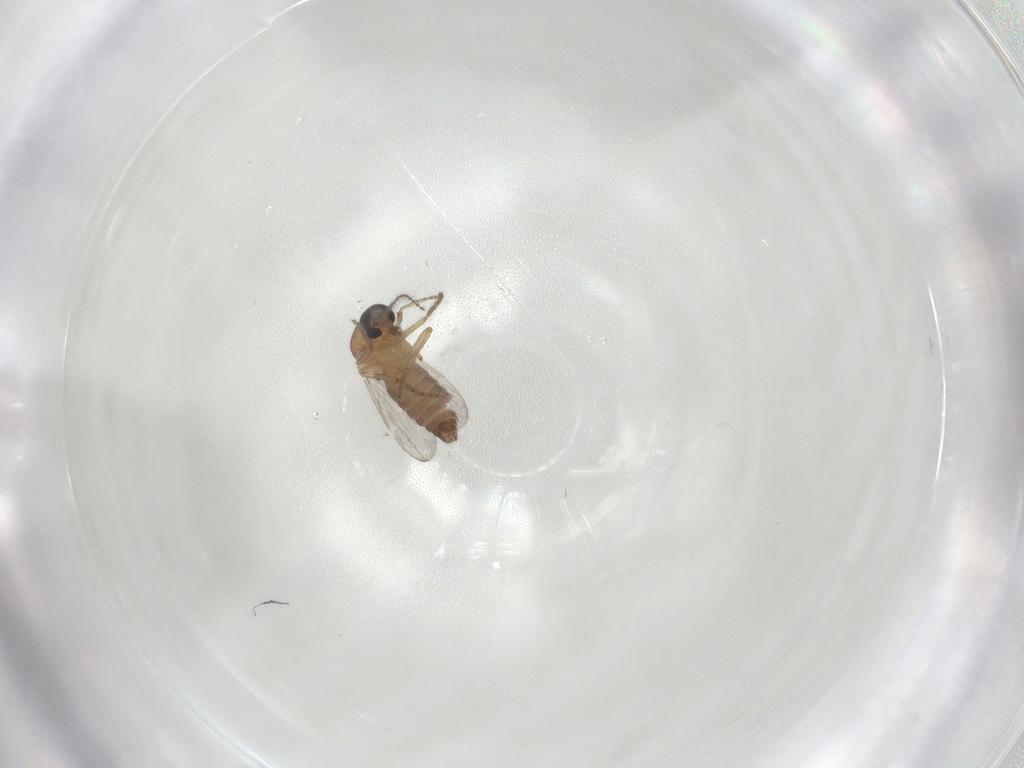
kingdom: Animalia
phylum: Arthropoda
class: Insecta
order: Diptera
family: Ceratopogonidae
